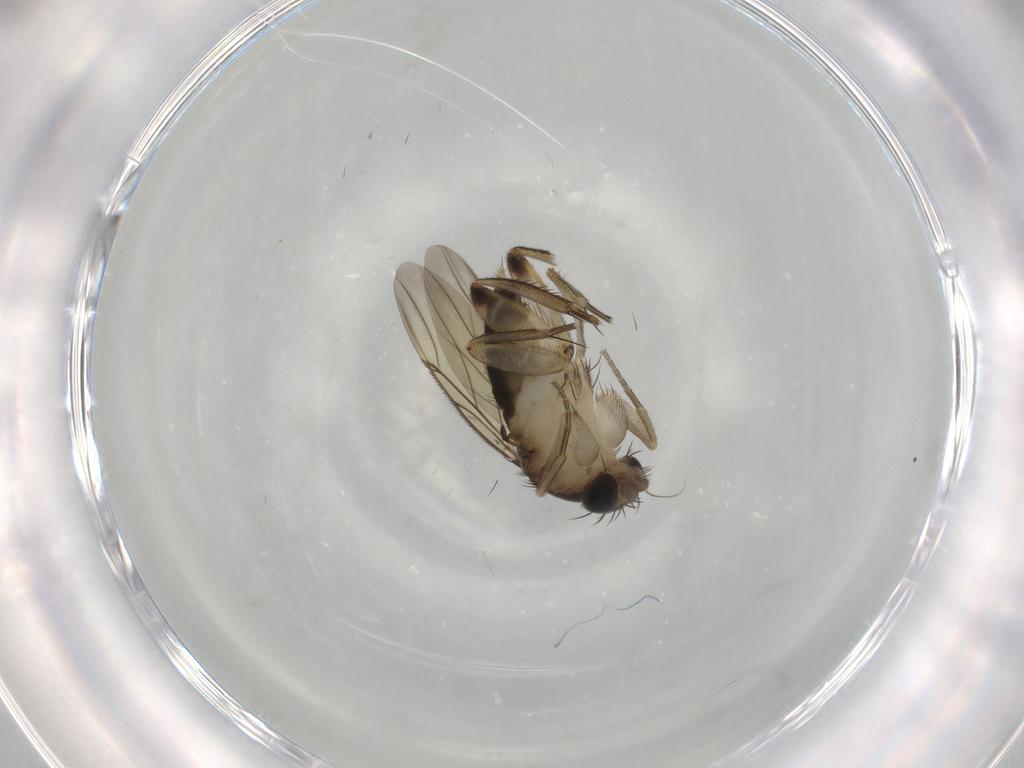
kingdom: Animalia
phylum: Arthropoda
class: Insecta
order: Diptera
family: Phoridae
